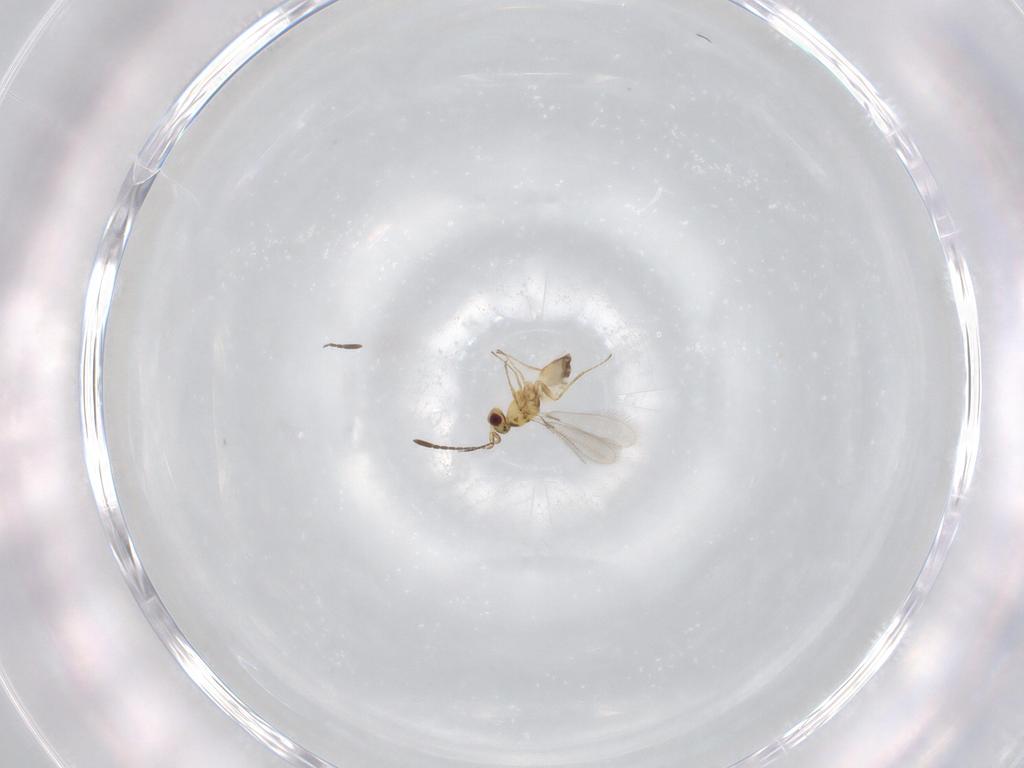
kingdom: Animalia
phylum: Arthropoda
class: Insecta
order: Hymenoptera
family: Mymaridae
